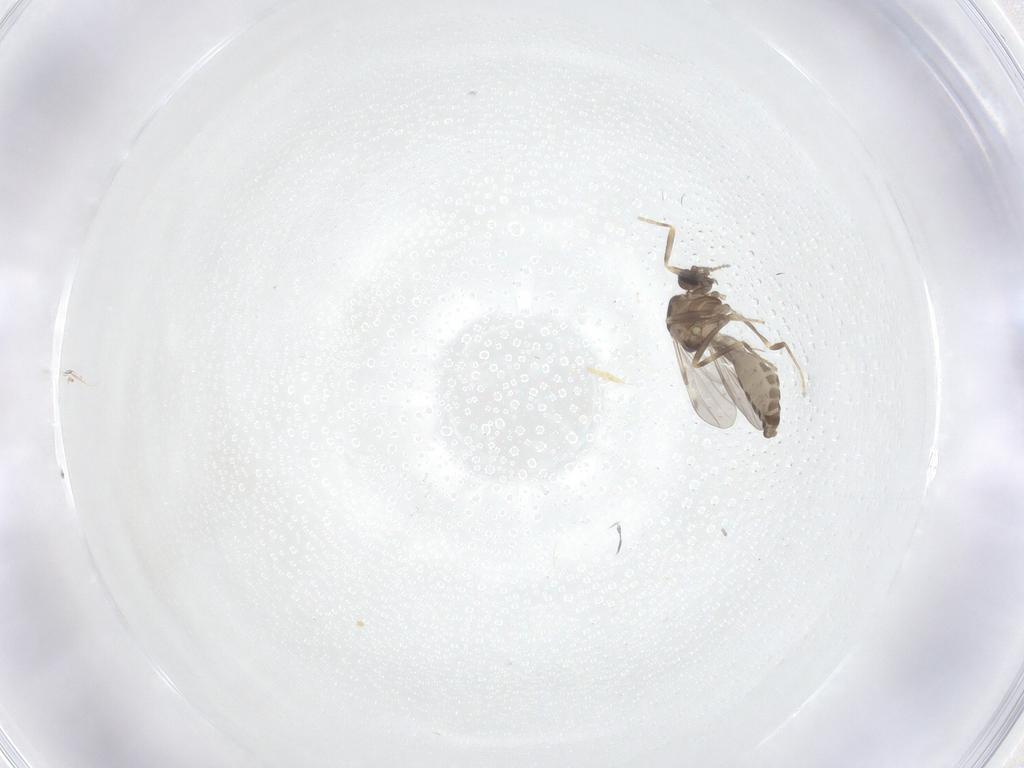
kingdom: Animalia
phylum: Arthropoda
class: Insecta
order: Diptera
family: Ceratopogonidae
